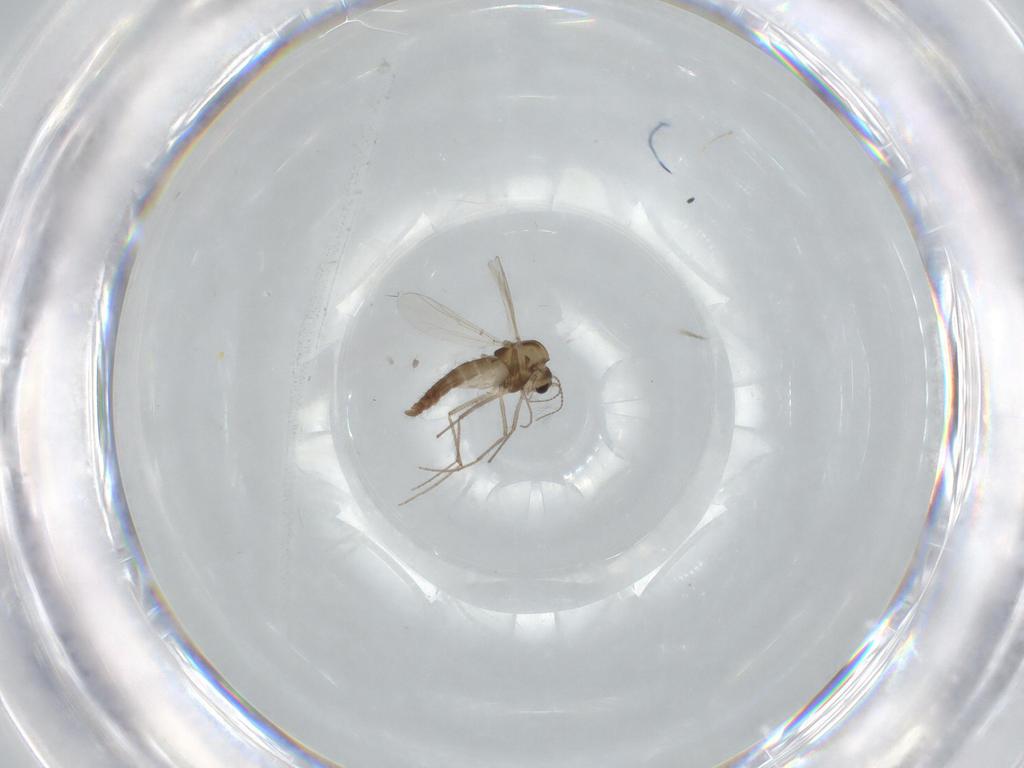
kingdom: Animalia
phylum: Arthropoda
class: Insecta
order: Diptera
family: Chironomidae
